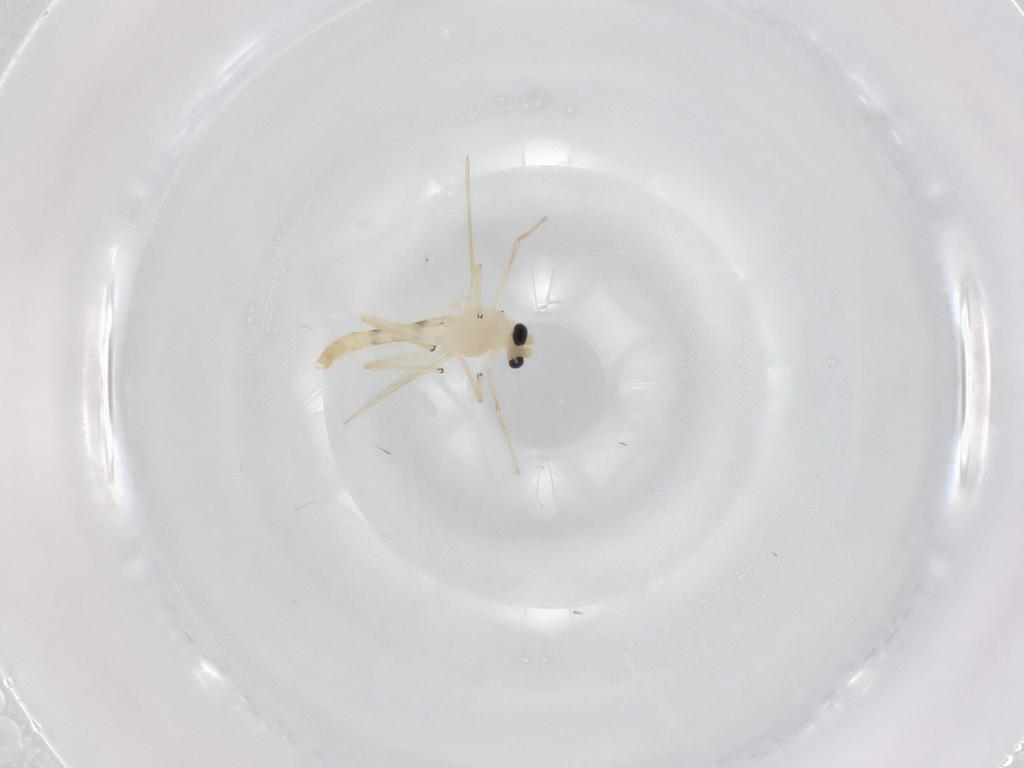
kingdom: Animalia
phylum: Arthropoda
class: Insecta
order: Diptera
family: Chironomidae
